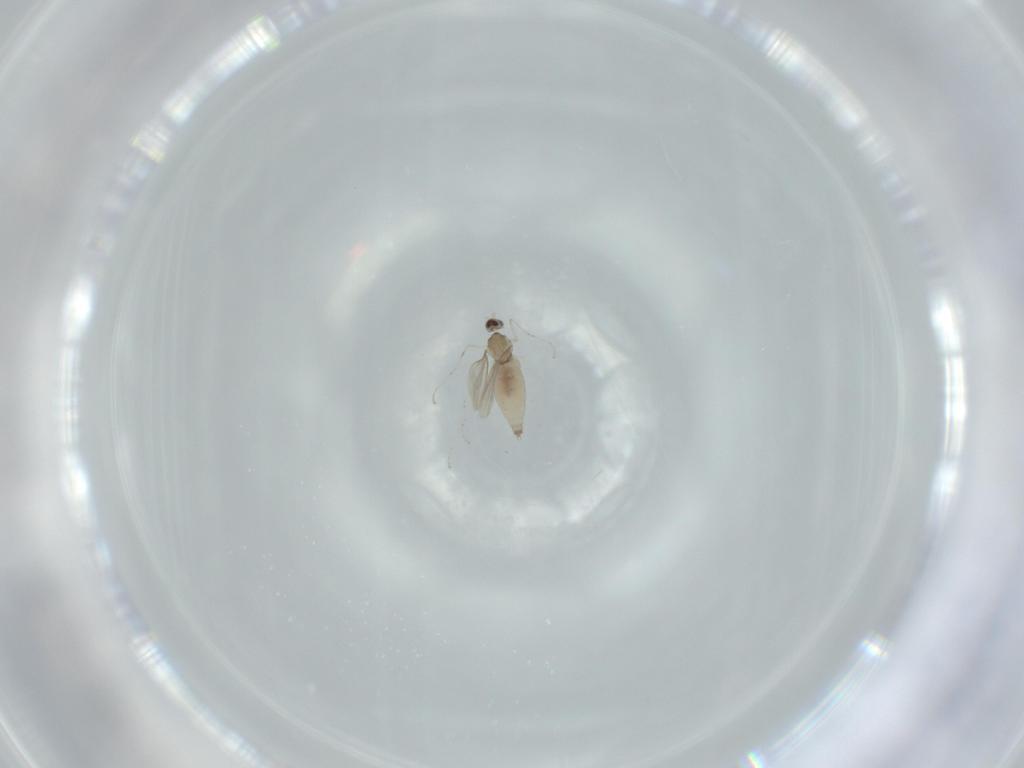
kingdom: Animalia
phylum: Arthropoda
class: Insecta
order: Diptera
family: Cecidomyiidae
